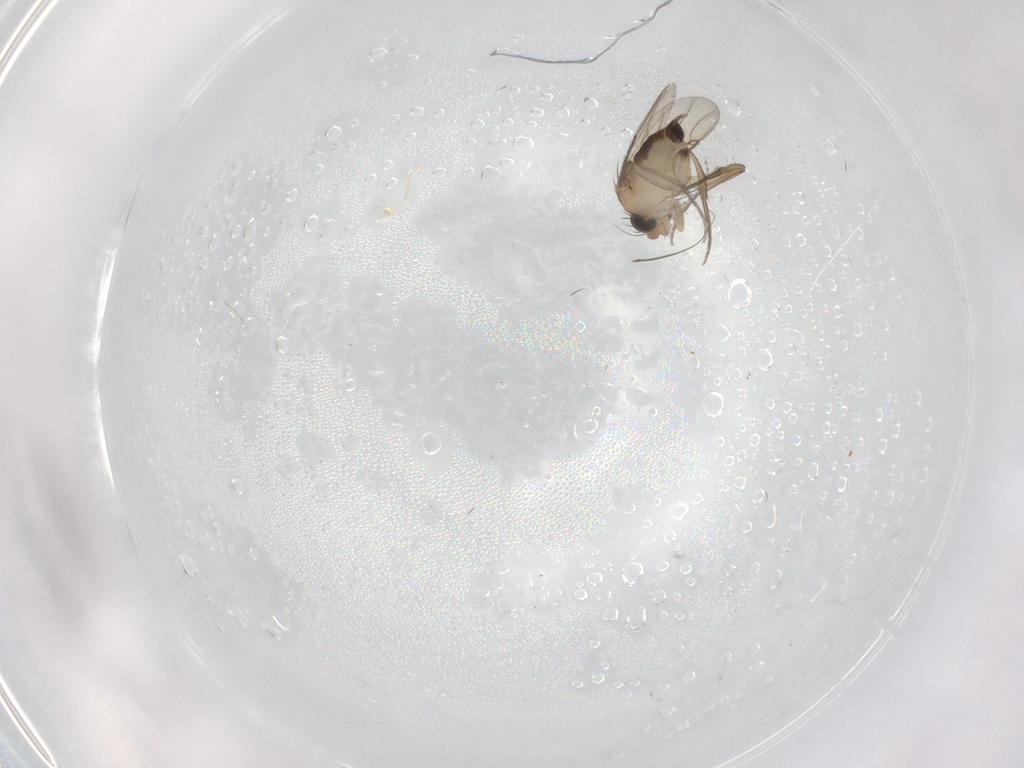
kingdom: Animalia
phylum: Arthropoda
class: Insecta
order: Diptera
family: Phoridae
